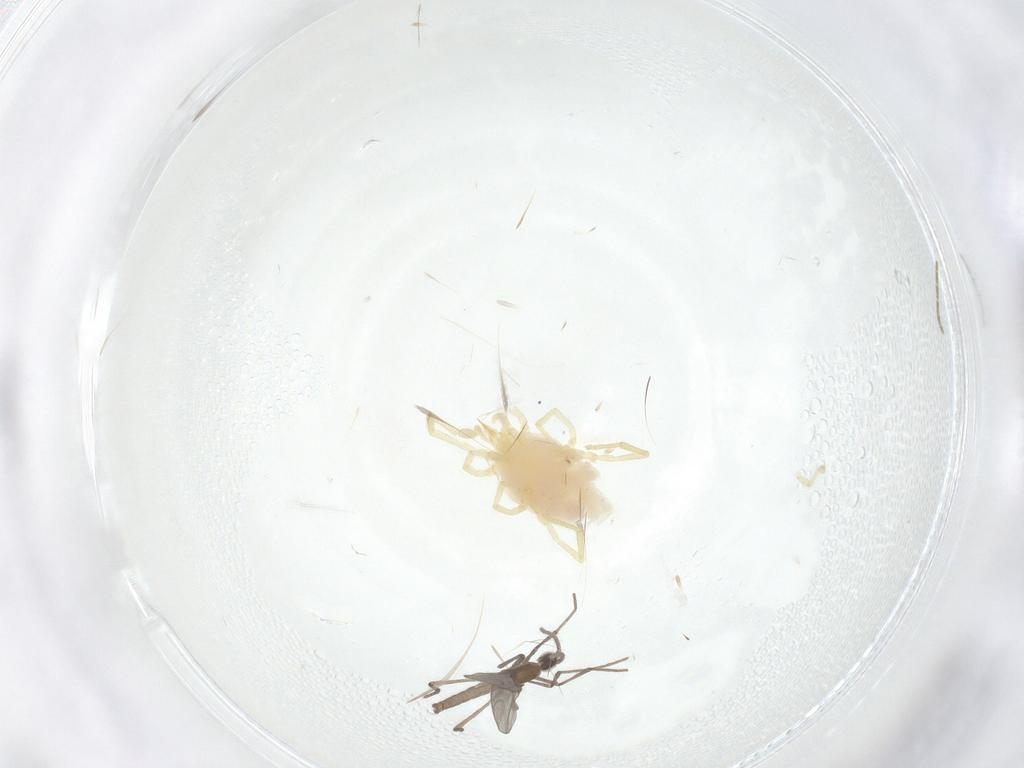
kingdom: Animalia
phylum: Arthropoda
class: Arachnida
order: Trombidiformes
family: Erythraeidae
